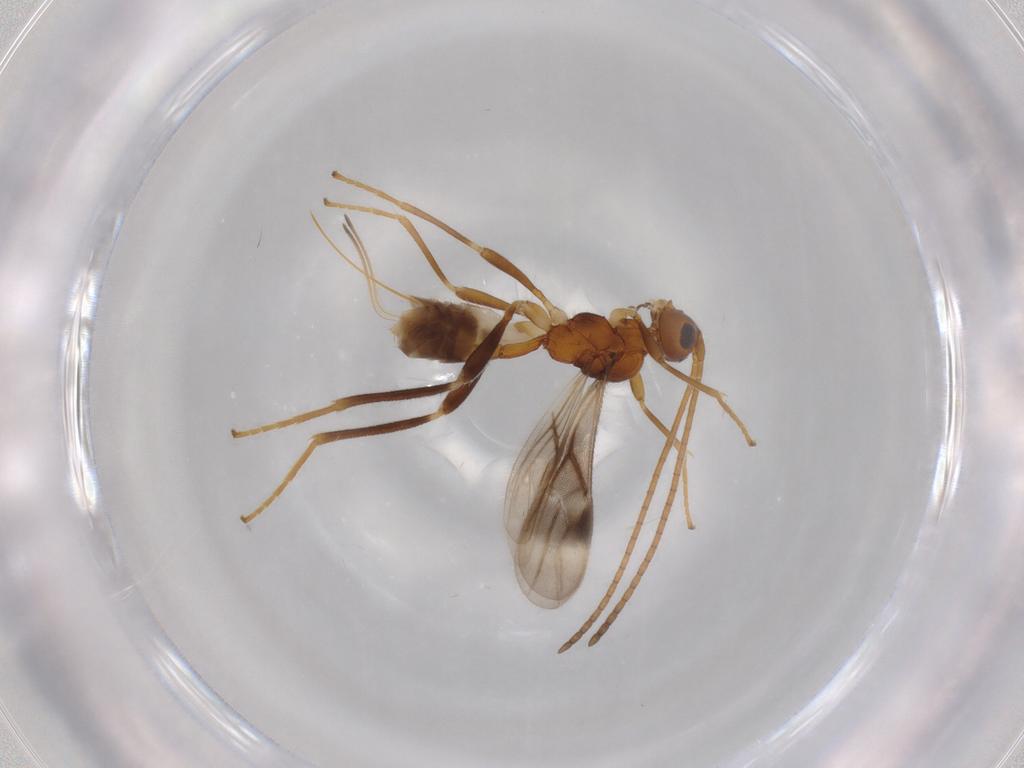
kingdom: Animalia
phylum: Arthropoda
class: Insecta
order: Hymenoptera
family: Braconidae
